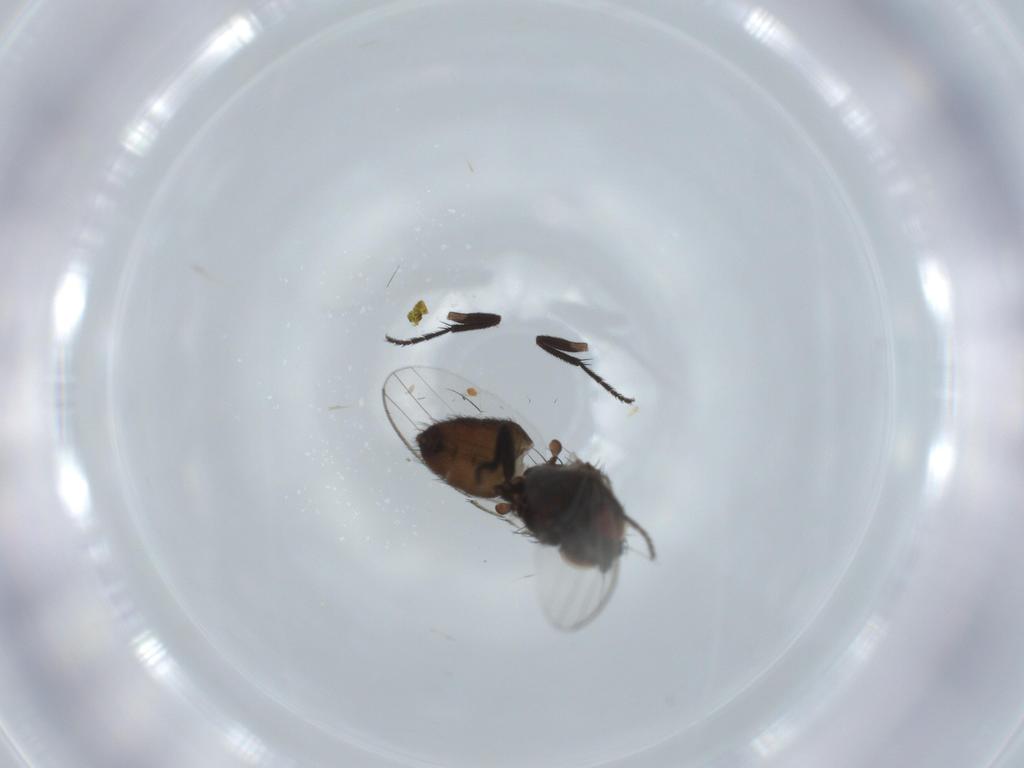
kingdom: Animalia
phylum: Arthropoda
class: Insecta
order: Diptera
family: Milichiidae
